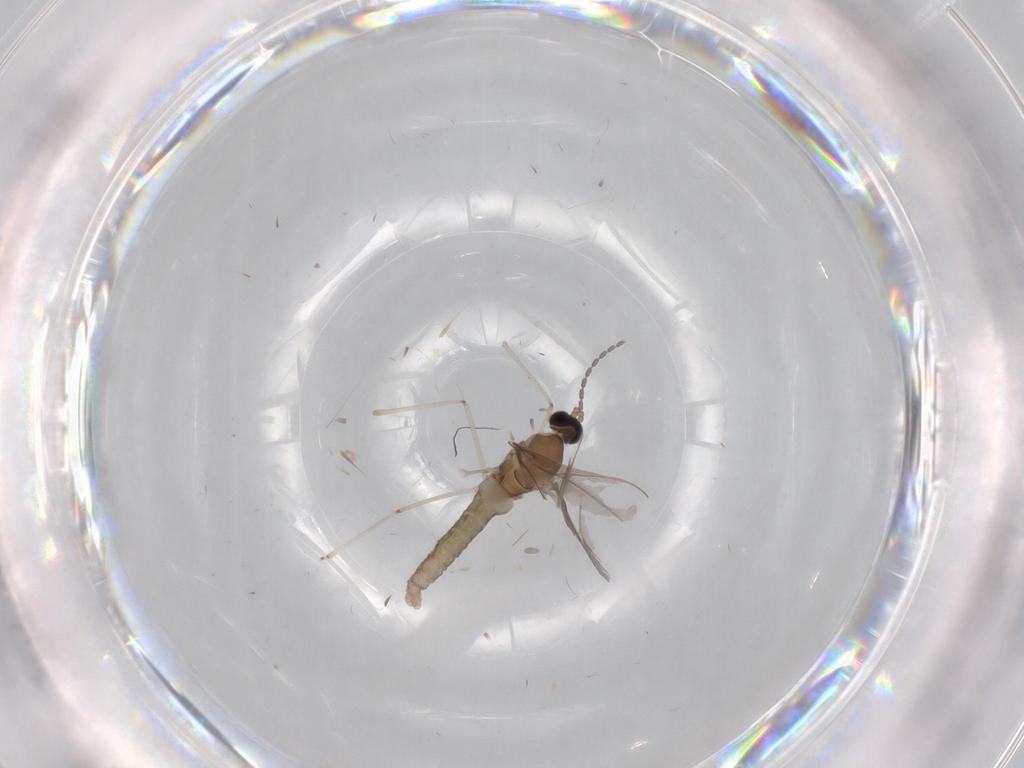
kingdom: Animalia
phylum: Arthropoda
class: Insecta
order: Diptera
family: Cecidomyiidae
